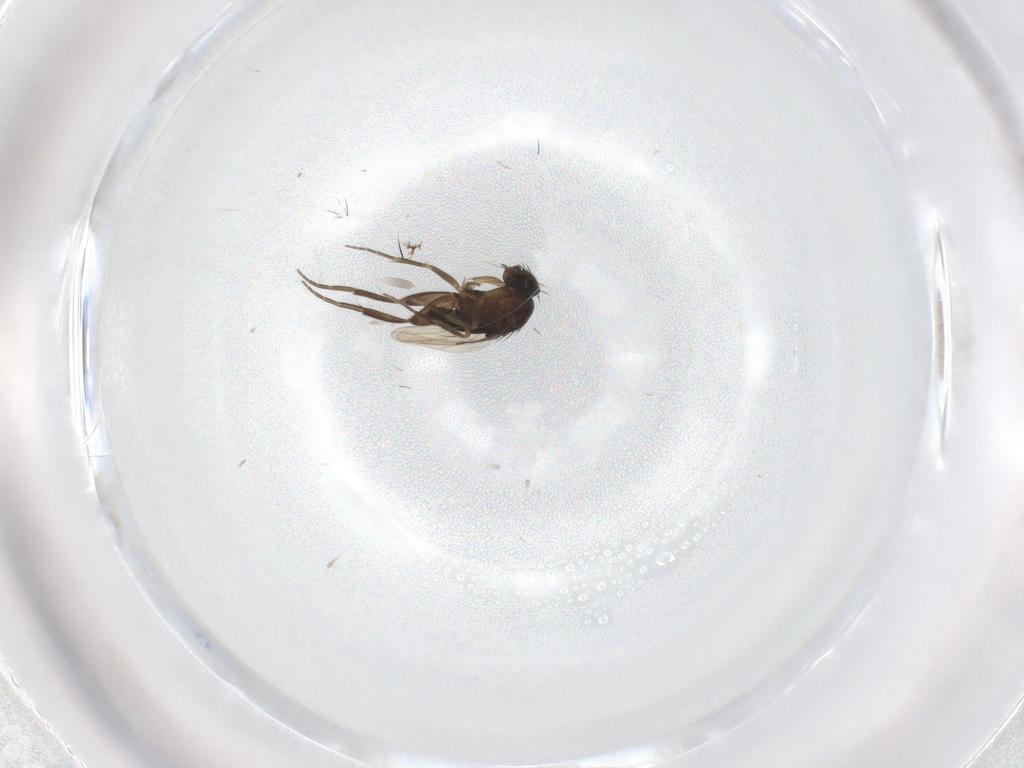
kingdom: Animalia
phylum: Arthropoda
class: Insecta
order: Diptera
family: Phoridae
